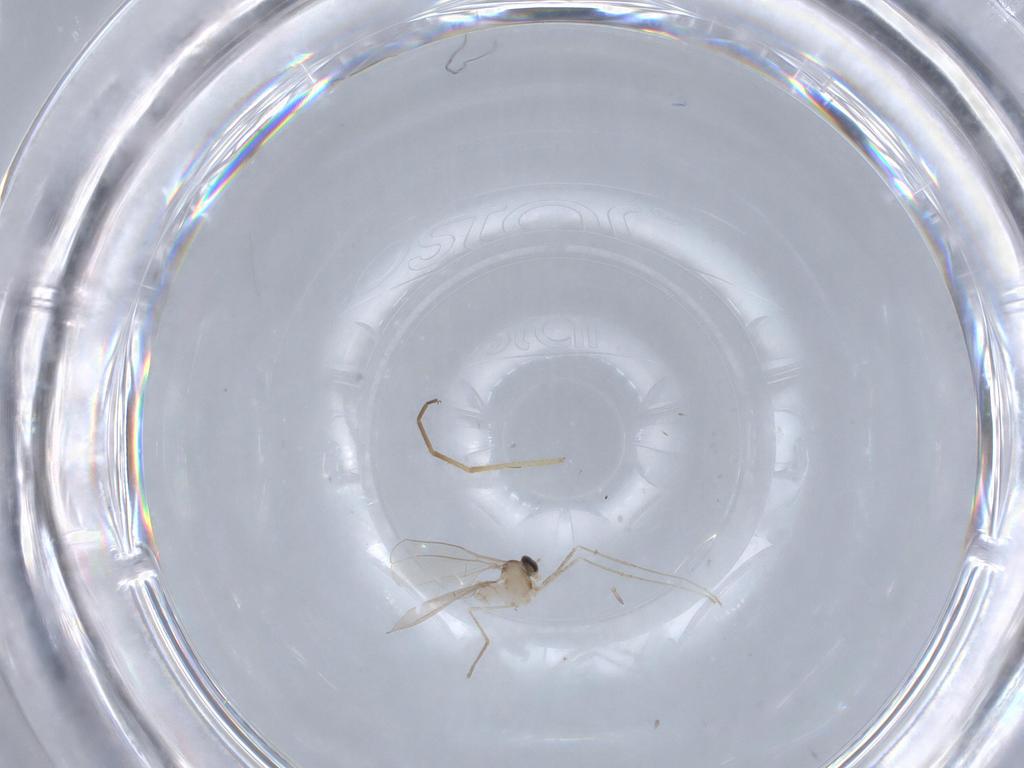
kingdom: Animalia
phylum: Arthropoda
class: Insecta
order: Diptera
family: Cecidomyiidae
